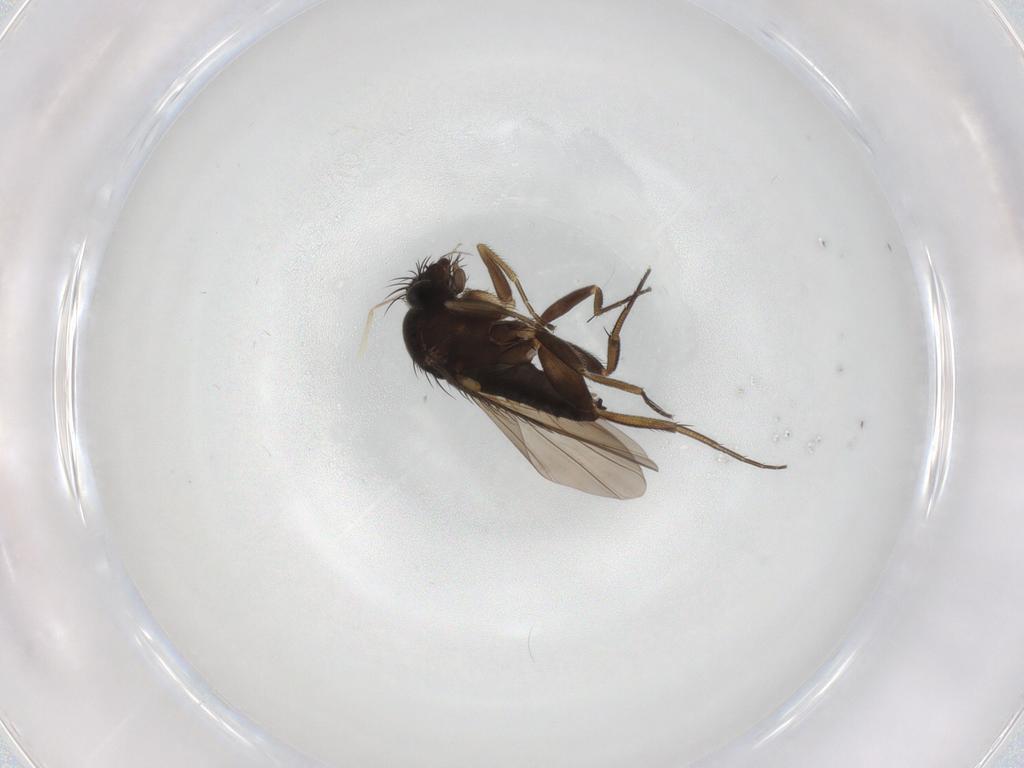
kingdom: Animalia
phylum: Arthropoda
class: Insecta
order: Diptera
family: Phoridae
